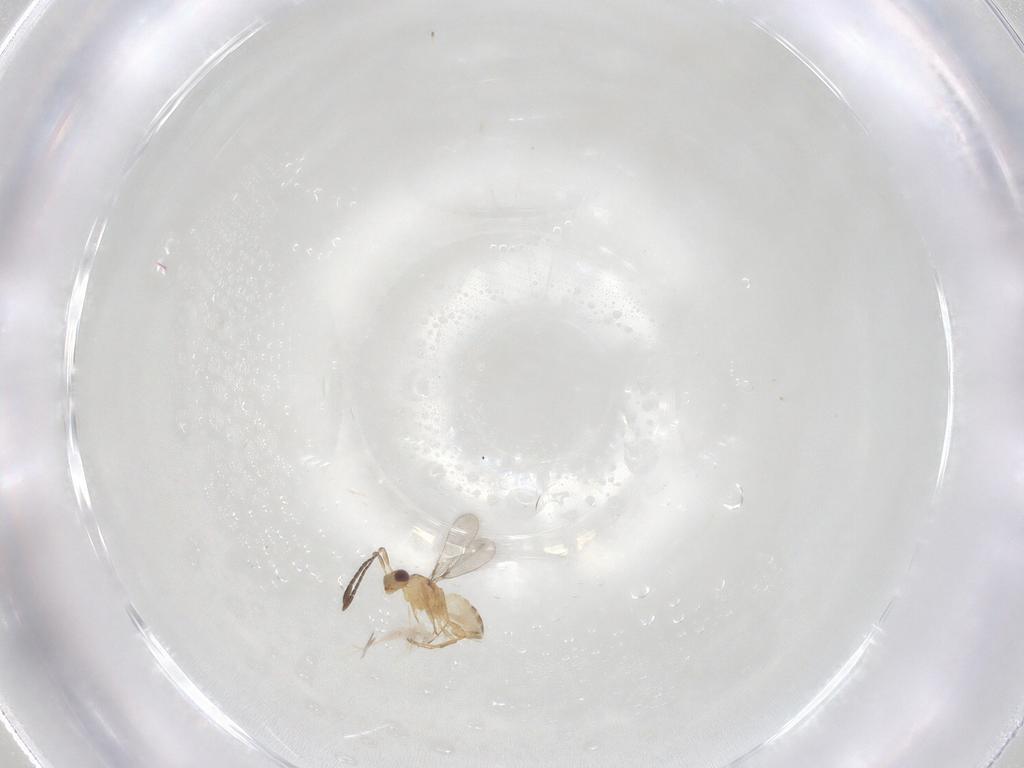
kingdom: Animalia
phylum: Arthropoda
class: Insecta
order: Hymenoptera
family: Mymaridae
